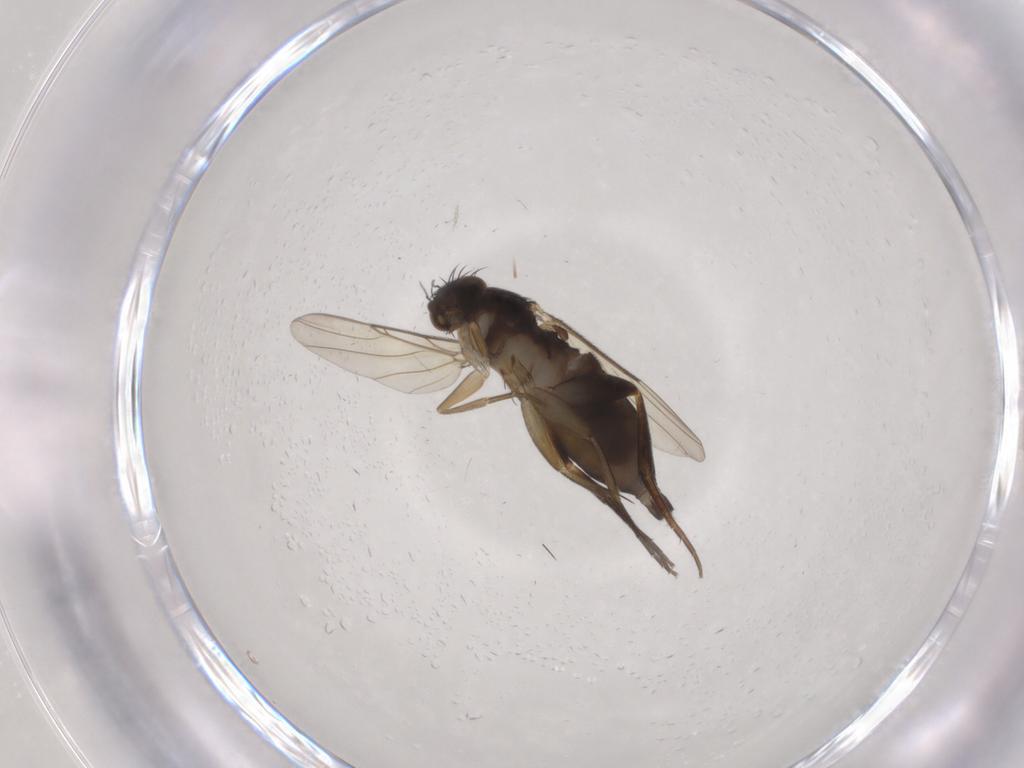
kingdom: Animalia
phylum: Arthropoda
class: Insecta
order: Diptera
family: Phoridae
